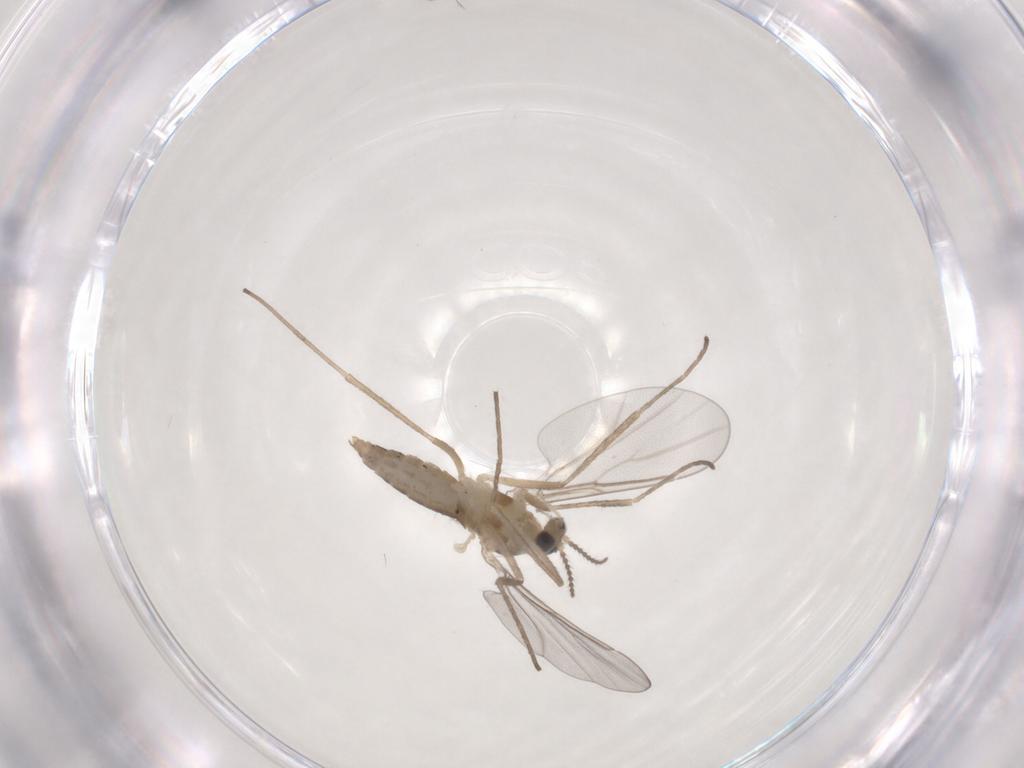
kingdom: Animalia
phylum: Arthropoda
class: Insecta
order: Diptera
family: Cecidomyiidae
